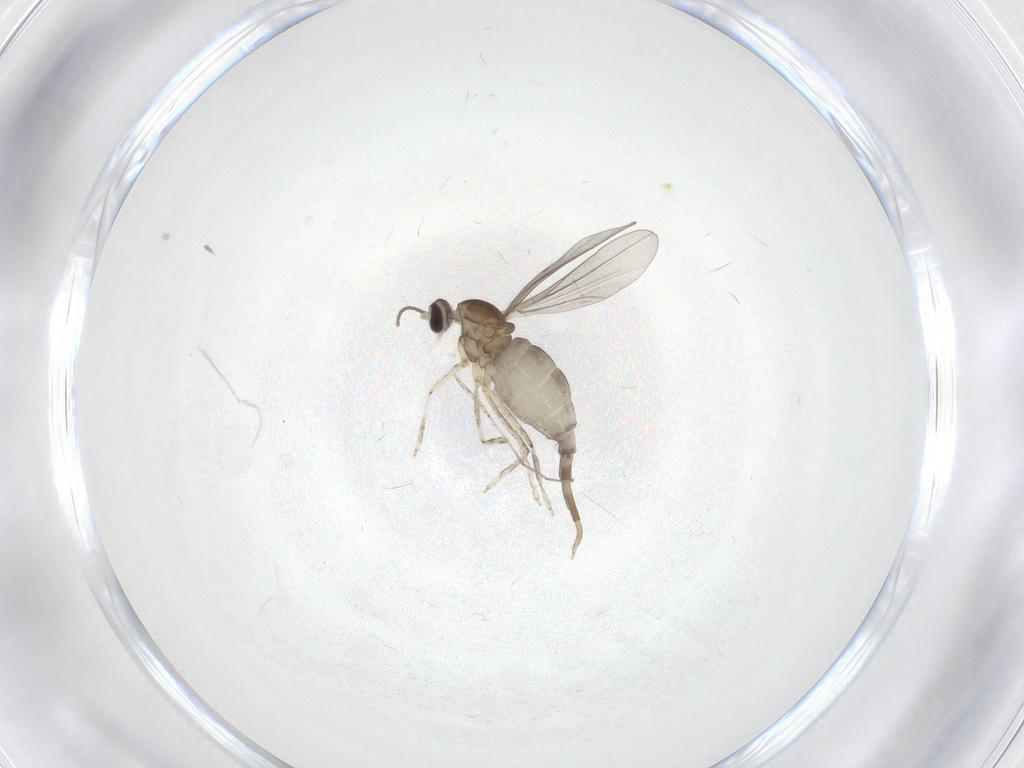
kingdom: Animalia
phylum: Arthropoda
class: Insecta
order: Diptera
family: Cecidomyiidae
